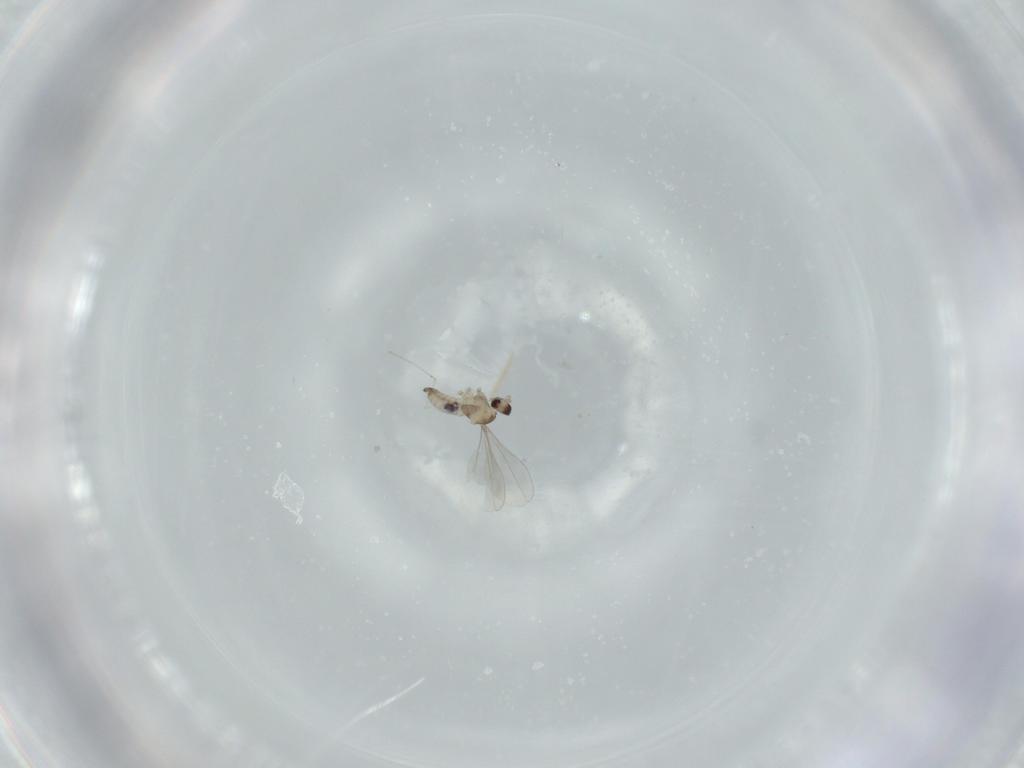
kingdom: Animalia
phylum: Arthropoda
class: Insecta
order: Diptera
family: Cecidomyiidae
